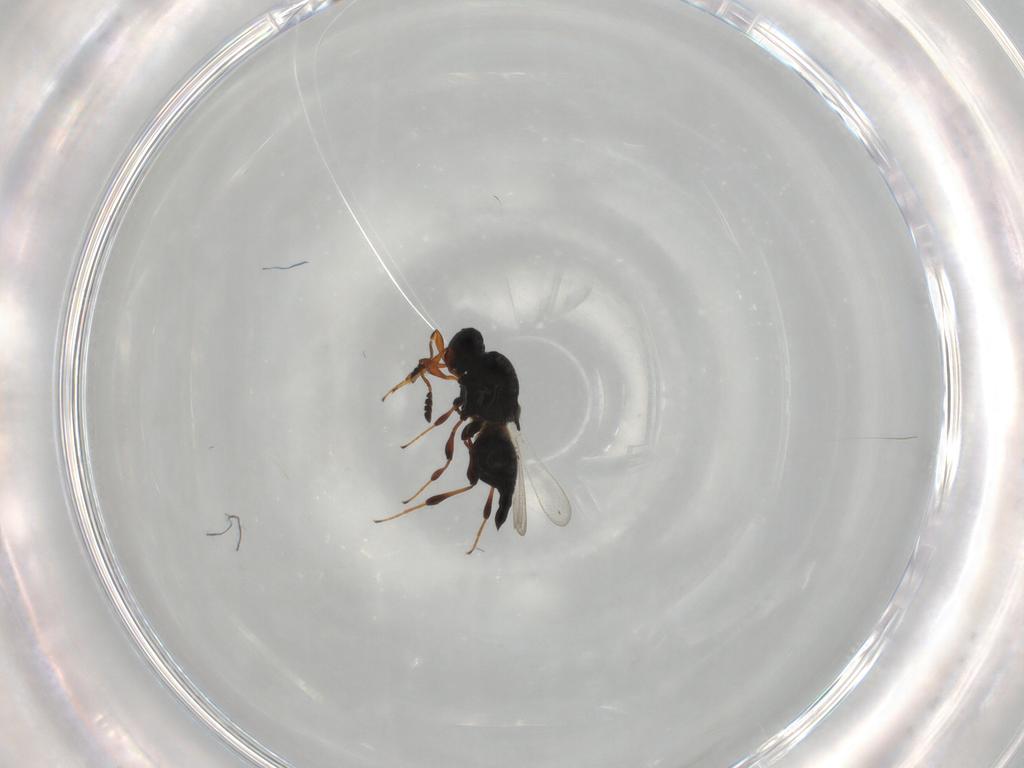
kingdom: Animalia
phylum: Arthropoda
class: Insecta
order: Hymenoptera
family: Platygastridae
